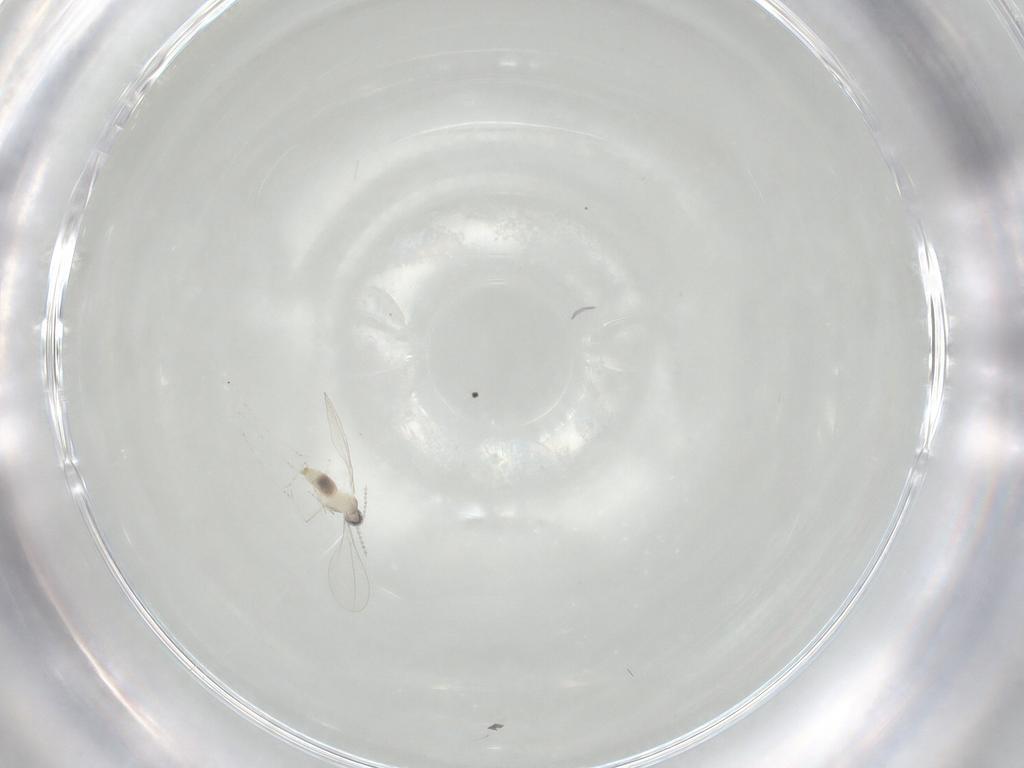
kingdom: Animalia
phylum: Arthropoda
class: Insecta
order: Diptera
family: Cecidomyiidae
